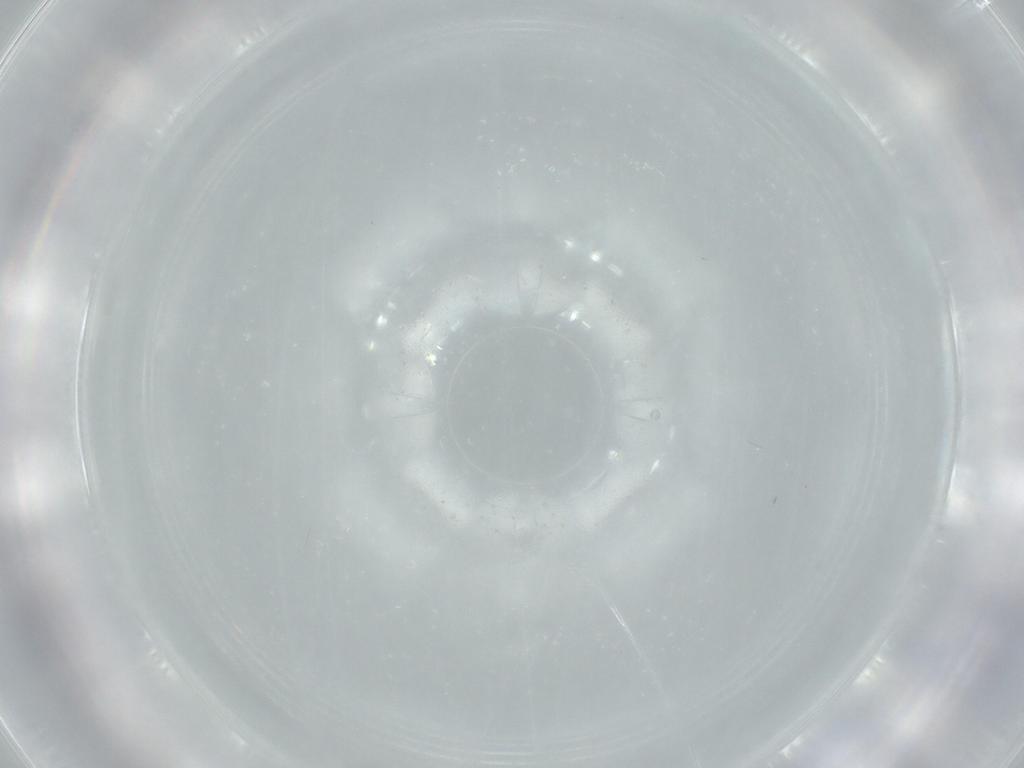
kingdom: Animalia
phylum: Arthropoda
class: Insecta
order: Diptera
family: Cecidomyiidae
